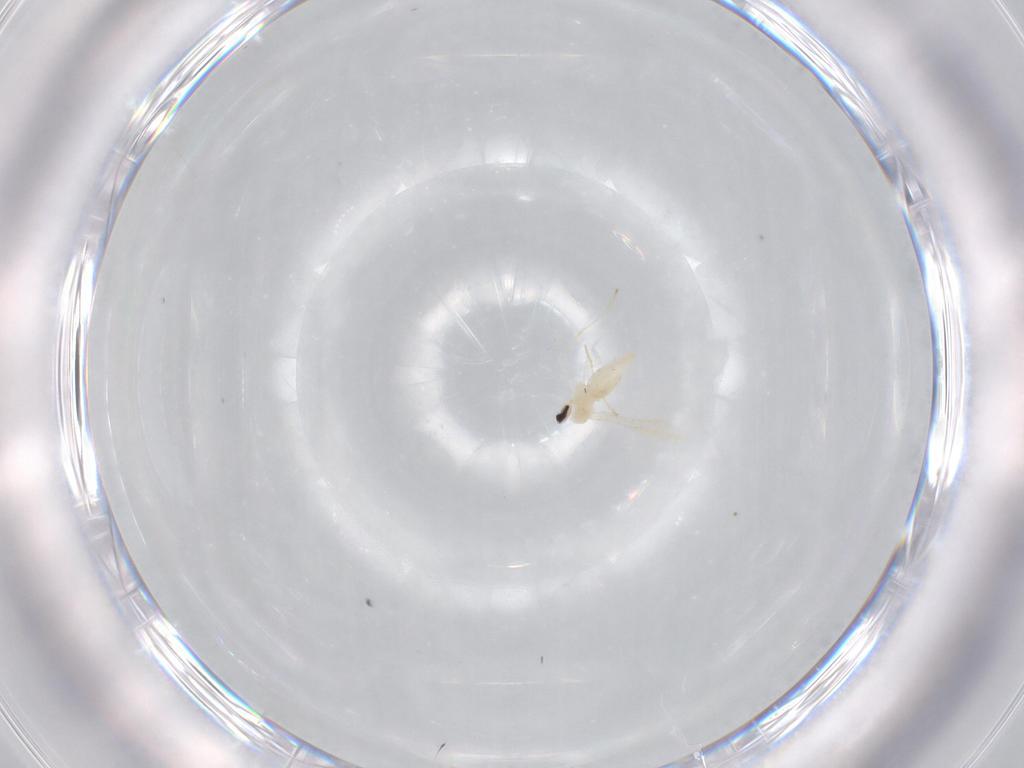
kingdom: Animalia
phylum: Arthropoda
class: Insecta
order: Diptera
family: Cecidomyiidae
